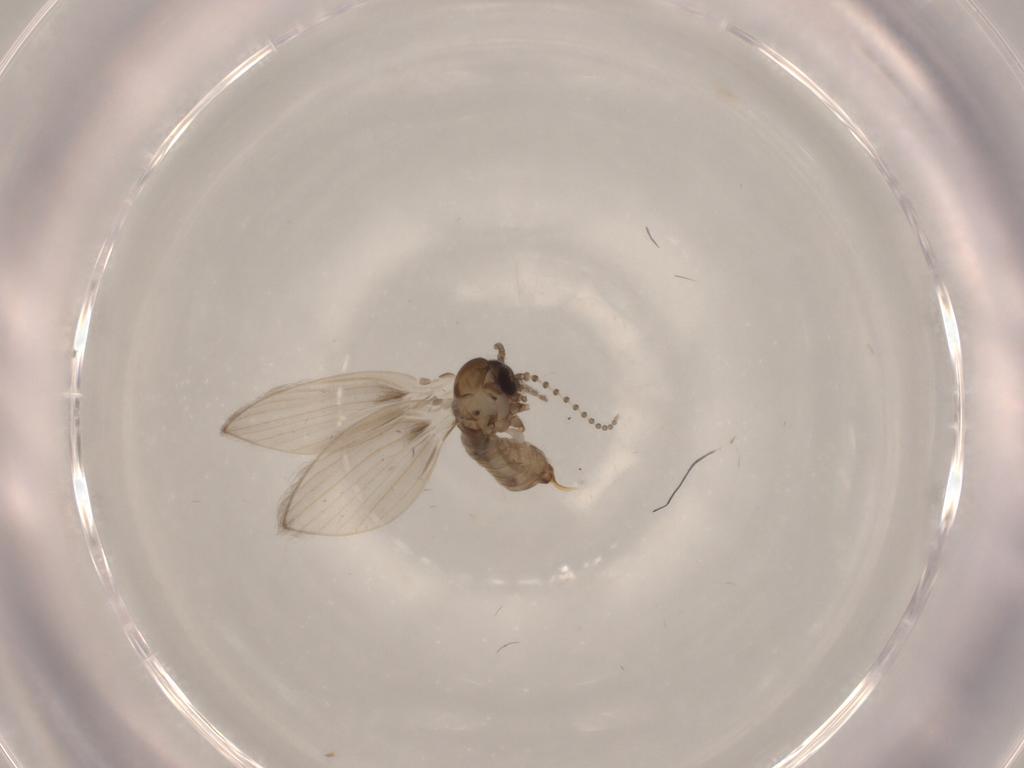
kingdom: Animalia
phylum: Arthropoda
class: Insecta
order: Diptera
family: Psychodidae
